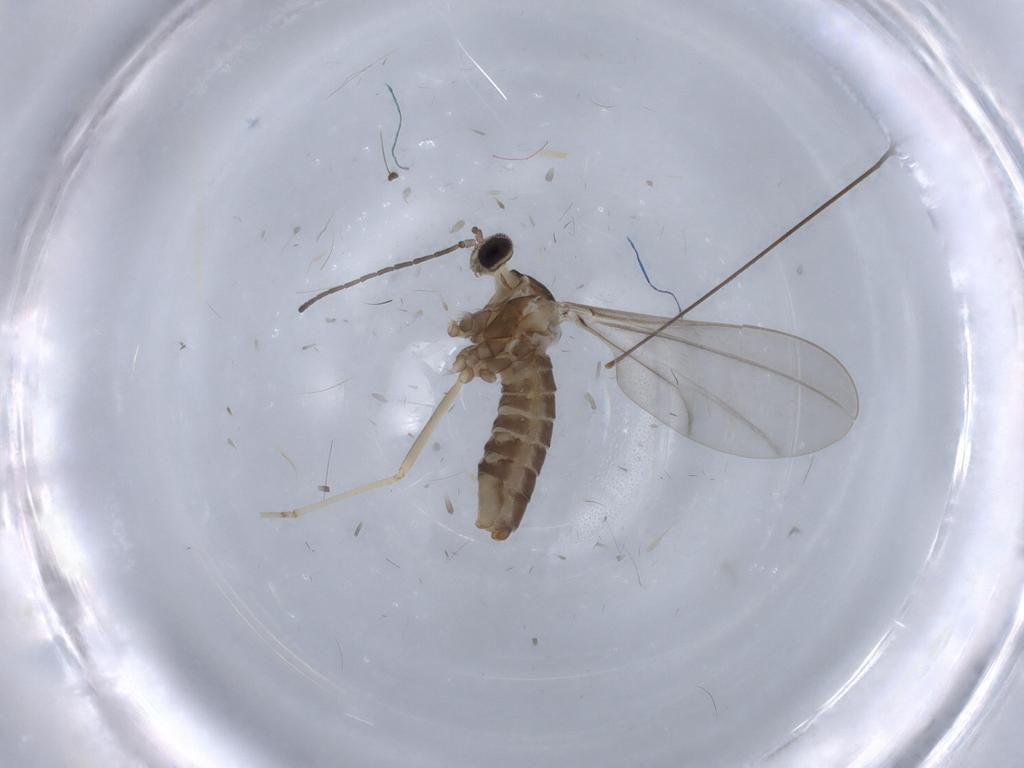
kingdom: Animalia
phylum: Arthropoda
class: Insecta
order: Diptera
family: Limoniidae
